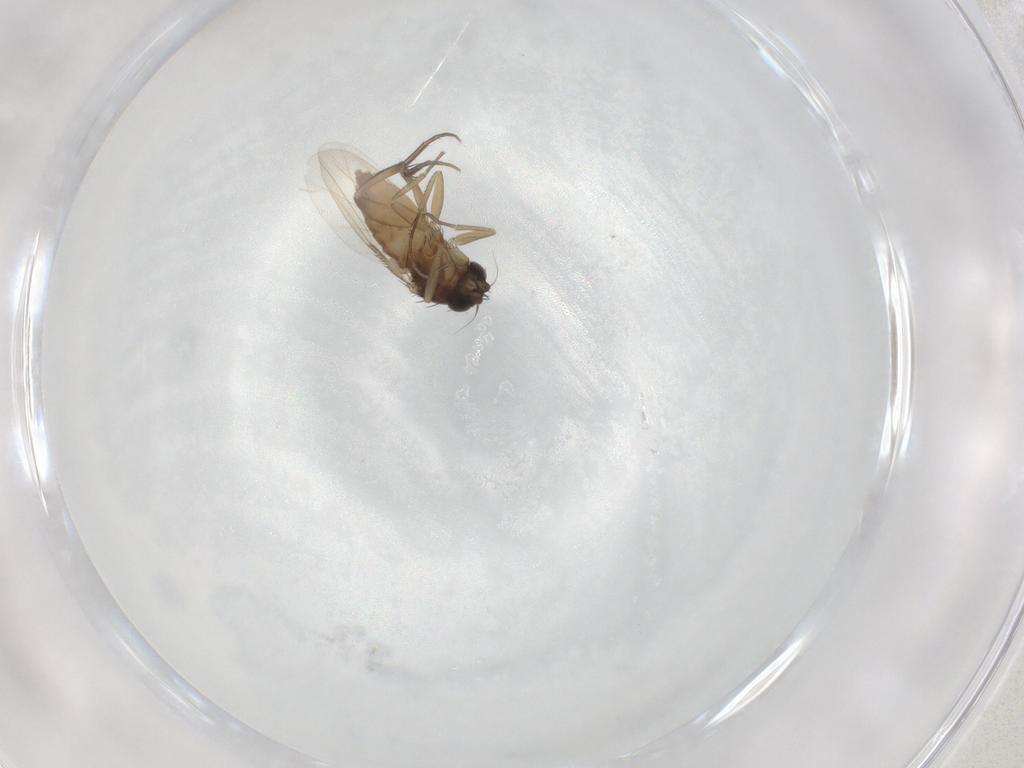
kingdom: Animalia
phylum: Arthropoda
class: Insecta
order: Diptera
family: Phoridae
